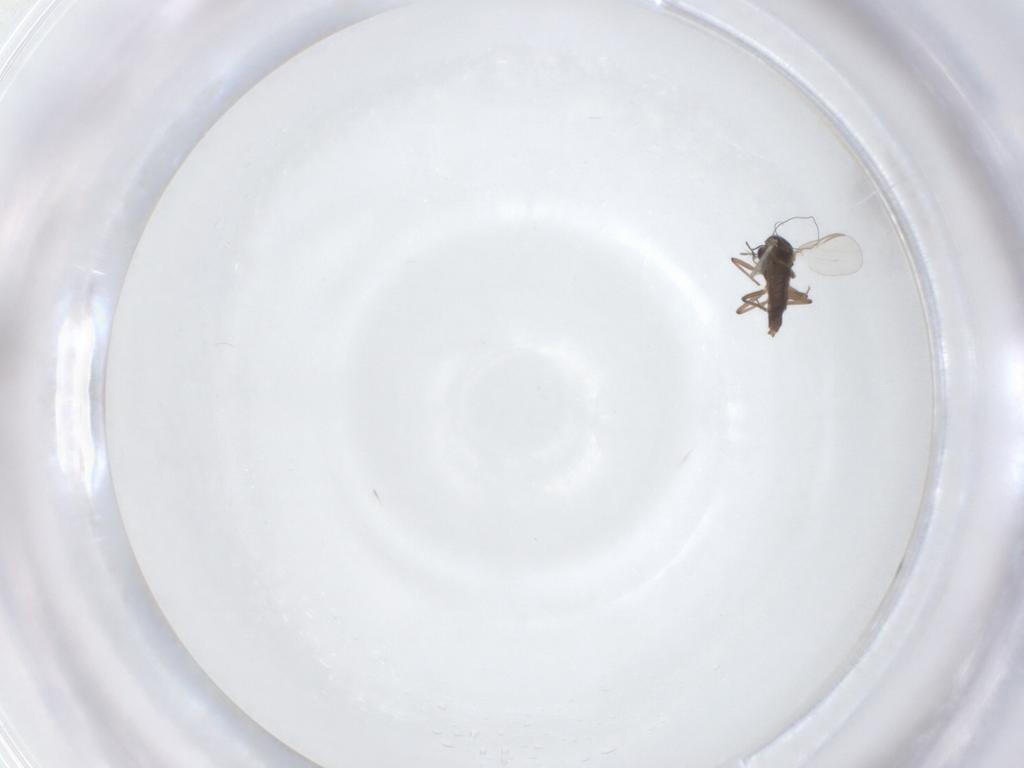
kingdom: Animalia
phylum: Arthropoda
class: Insecta
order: Diptera
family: Chironomidae
